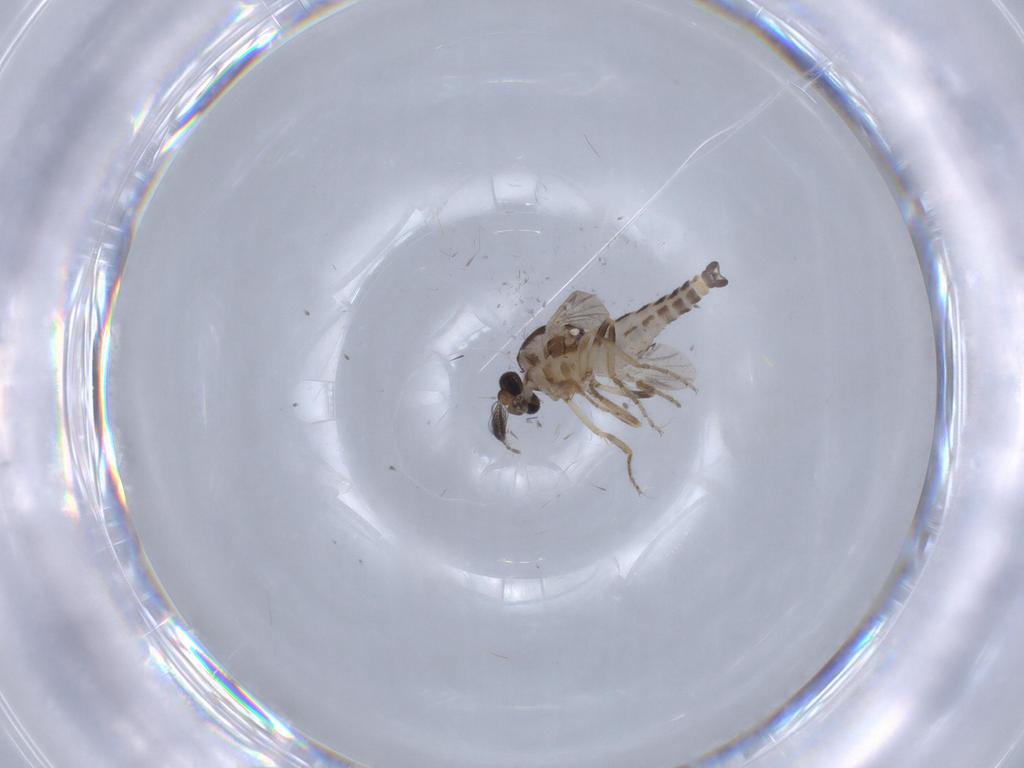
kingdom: Animalia
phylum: Arthropoda
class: Insecta
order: Diptera
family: Ceratopogonidae
